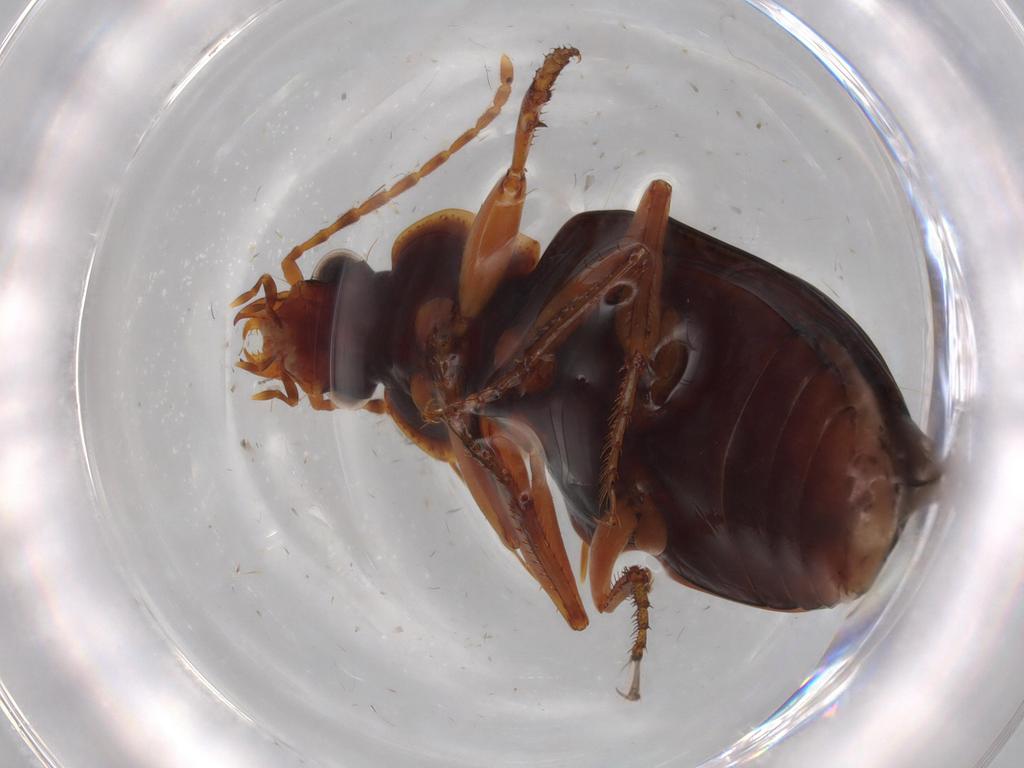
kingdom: Animalia
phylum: Arthropoda
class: Insecta
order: Coleoptera
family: Carabidae
